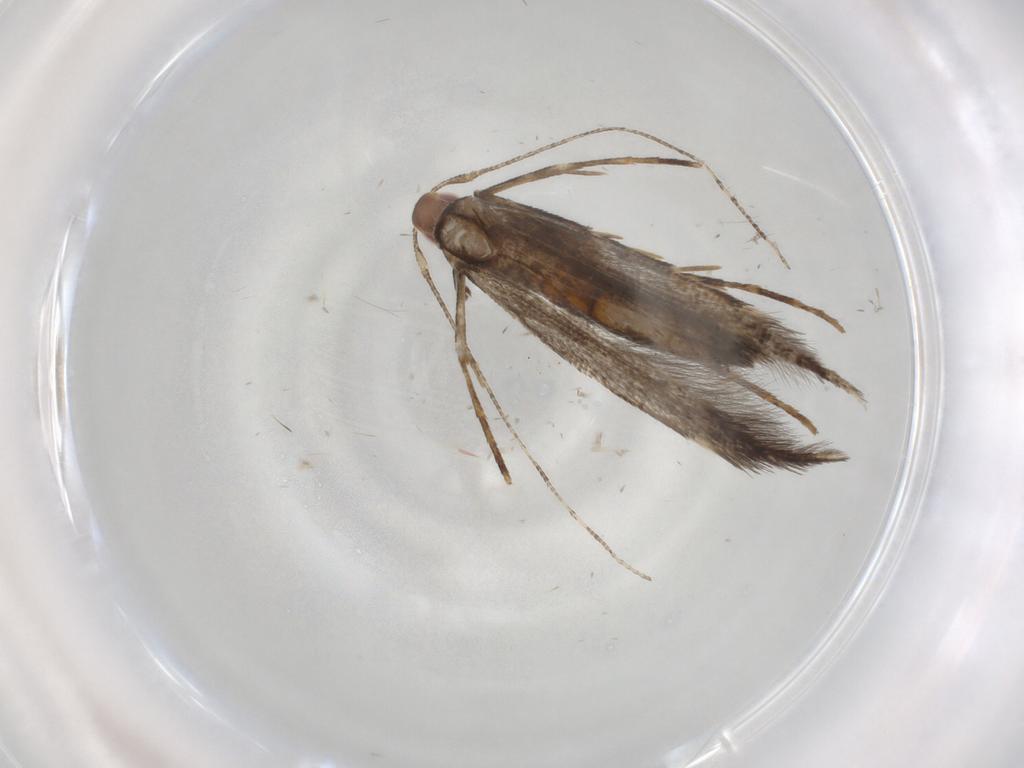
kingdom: Animalia
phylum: Arthropoda
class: Insecta
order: Lepidoptera
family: Cosmopterigidae
